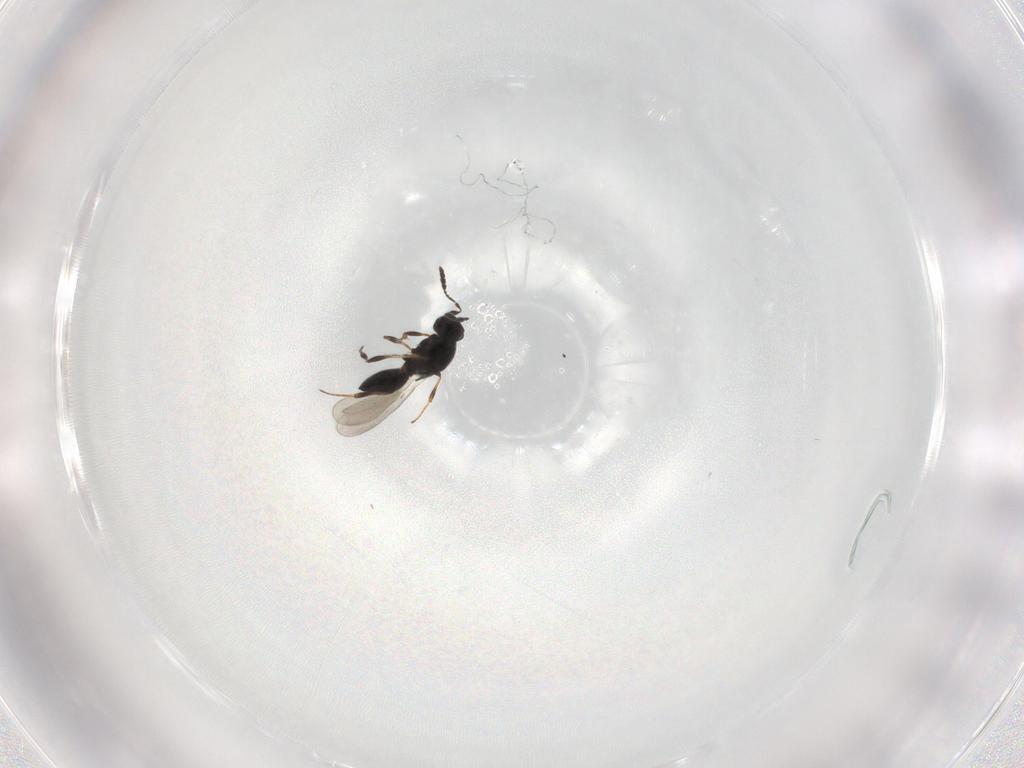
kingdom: Animalia
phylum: Arthropoda
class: Insecta
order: Hymenoptera
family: Platygastridae
